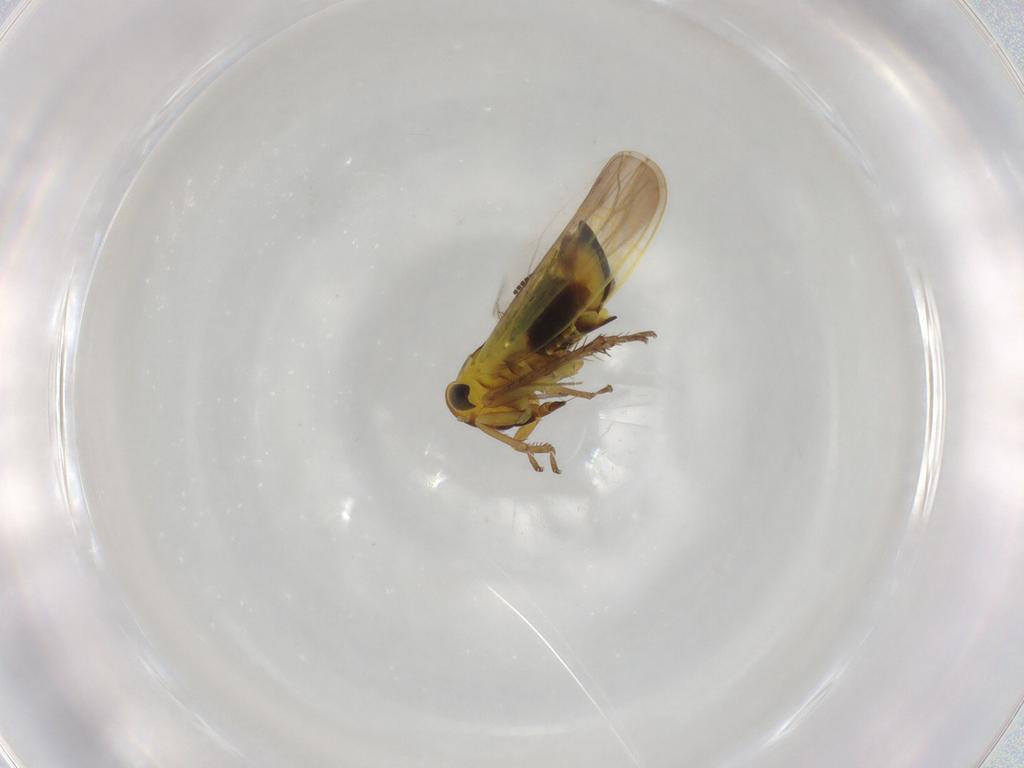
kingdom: Animalia
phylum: Arthropoda
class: Insecta
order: Hemiptera
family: Cicadellidae
